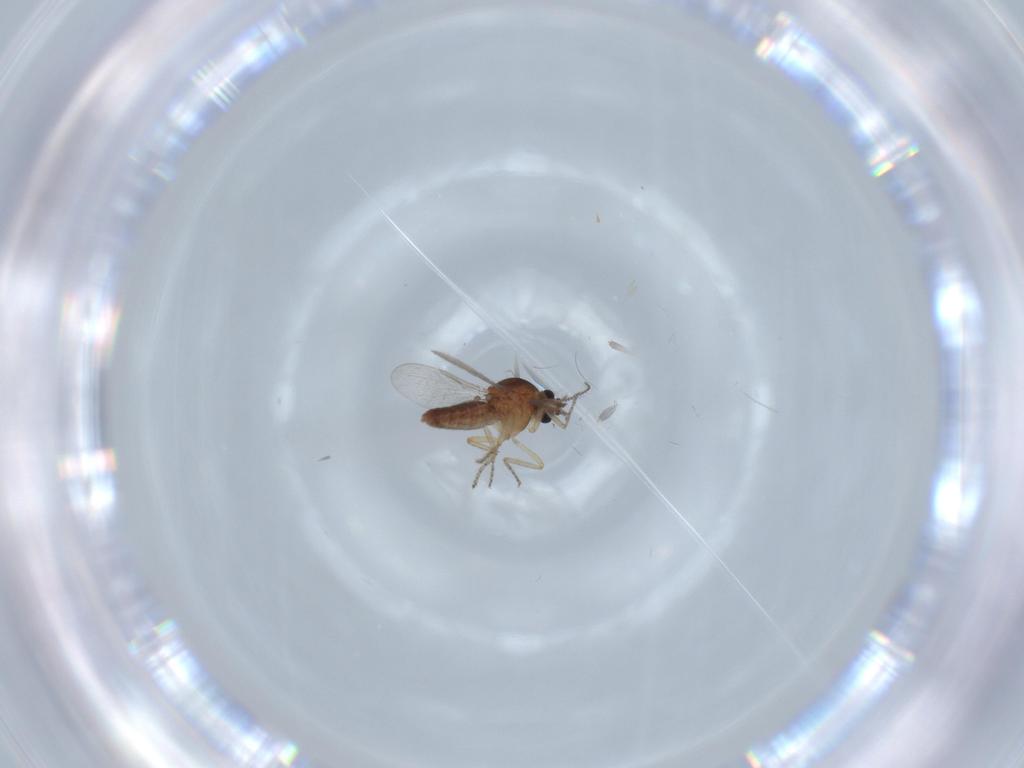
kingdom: Animalia
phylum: Arthropoda
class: Insecta
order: Diptera
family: Ceratopogonidae
